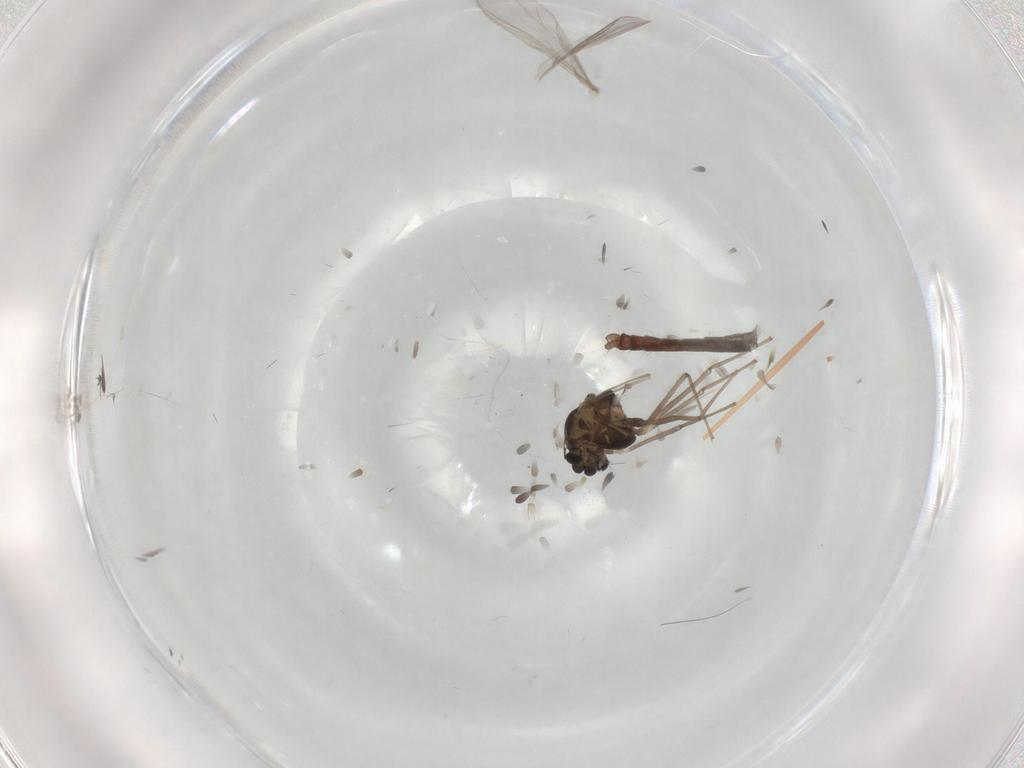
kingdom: Animalia
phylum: Arthropoda
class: Insecta
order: Diptera
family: Chironomidae
